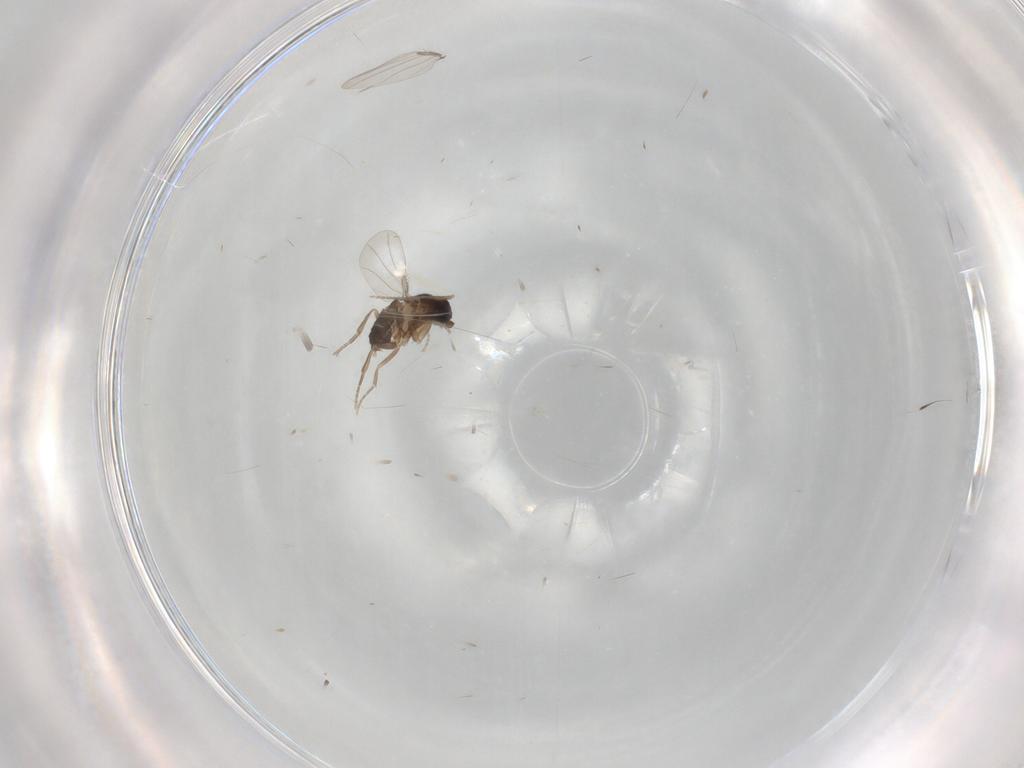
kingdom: Animalia
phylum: Arthropoda
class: Insecta
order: Diptera
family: Phoridae
